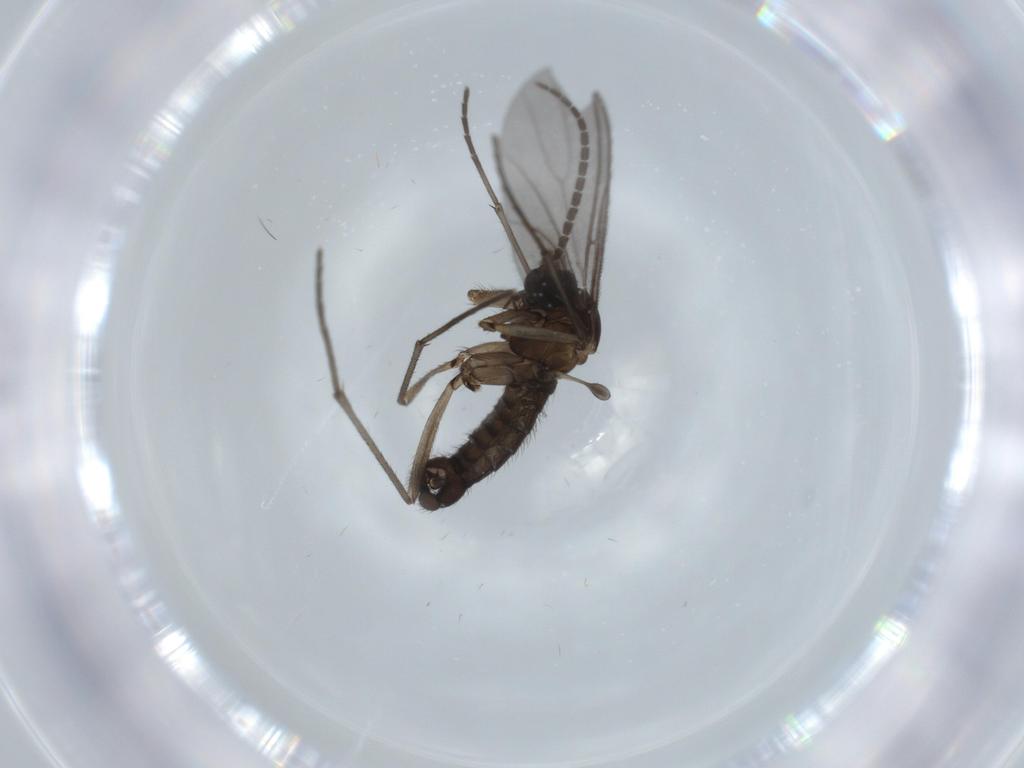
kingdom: Animalia
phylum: Arthropoda
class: Insecta
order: Diptera
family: Sciaridae
